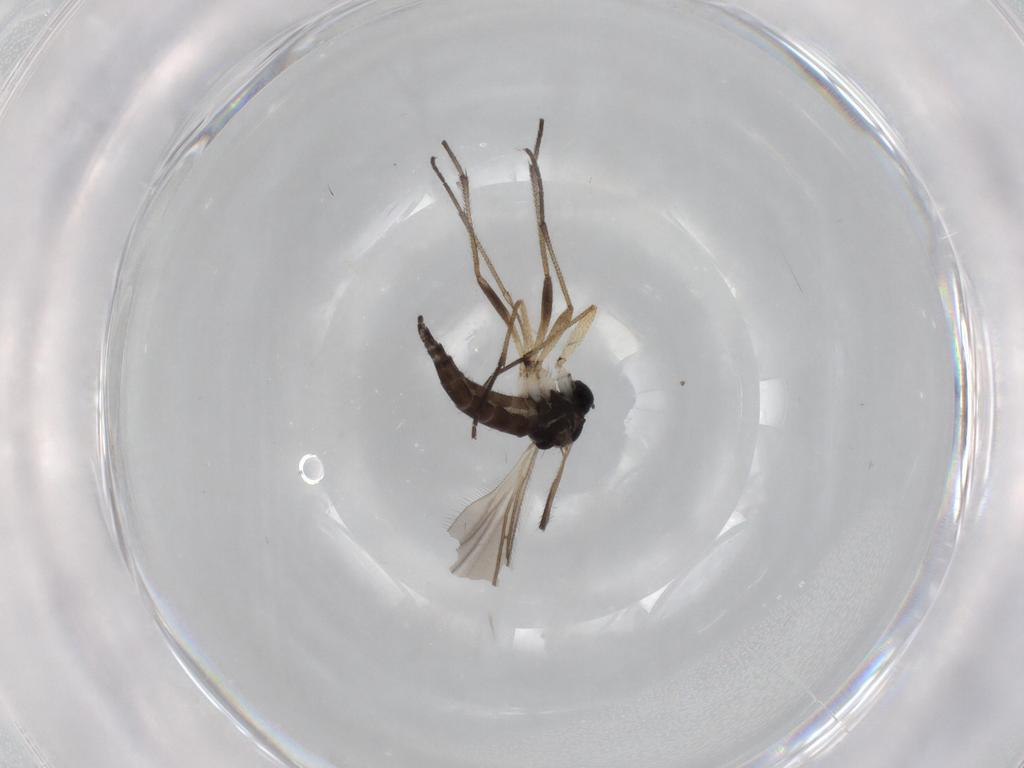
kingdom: Animalia
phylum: Arthropoda
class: Insecta
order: Diptera
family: Sciaridae
